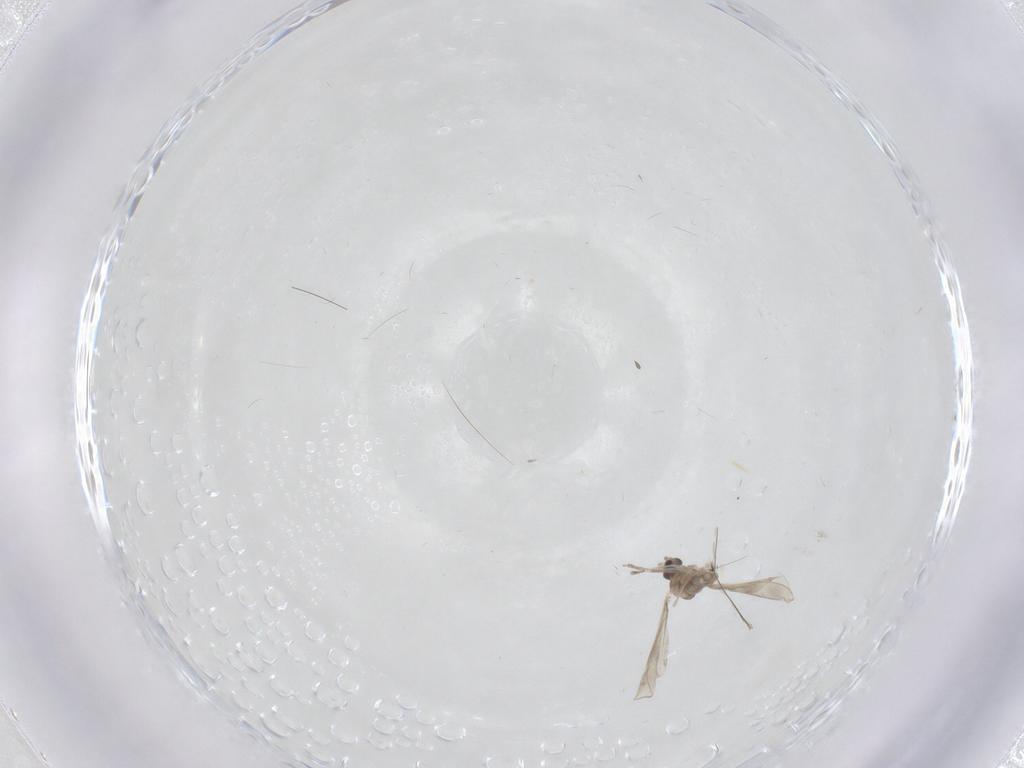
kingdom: Animalia
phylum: Arthropoda
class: Insecta
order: Diptera
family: Chironomidae
